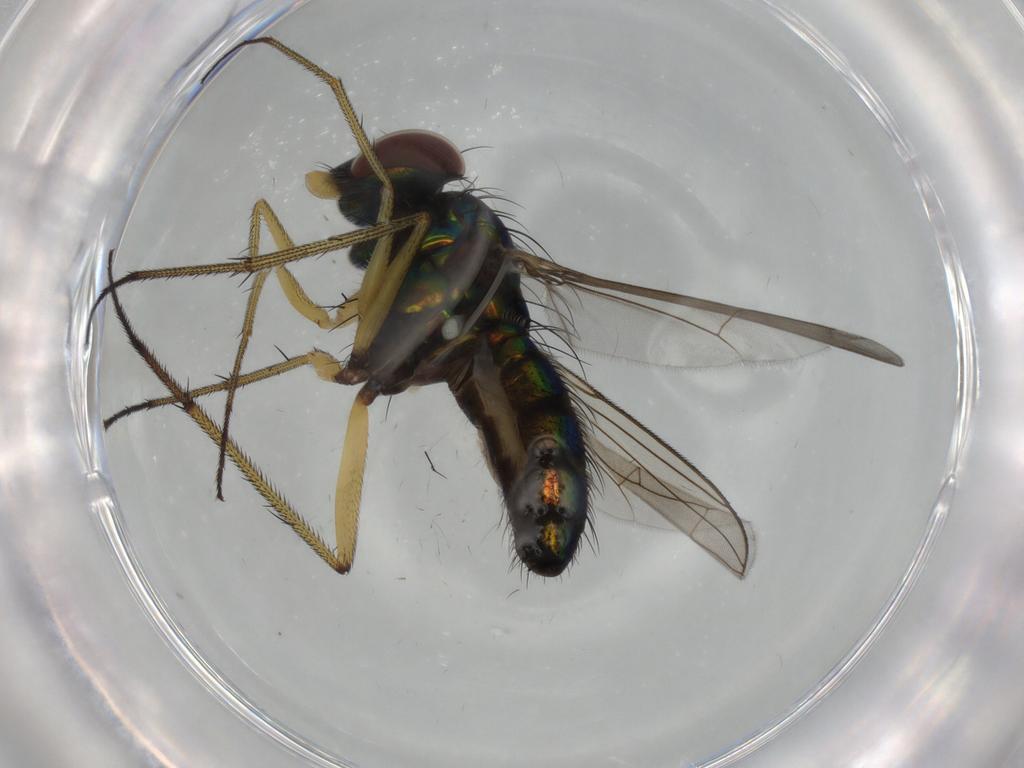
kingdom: Animalia
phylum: Arthropoda
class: Insecta
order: Diptera
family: Dolichopodidae
